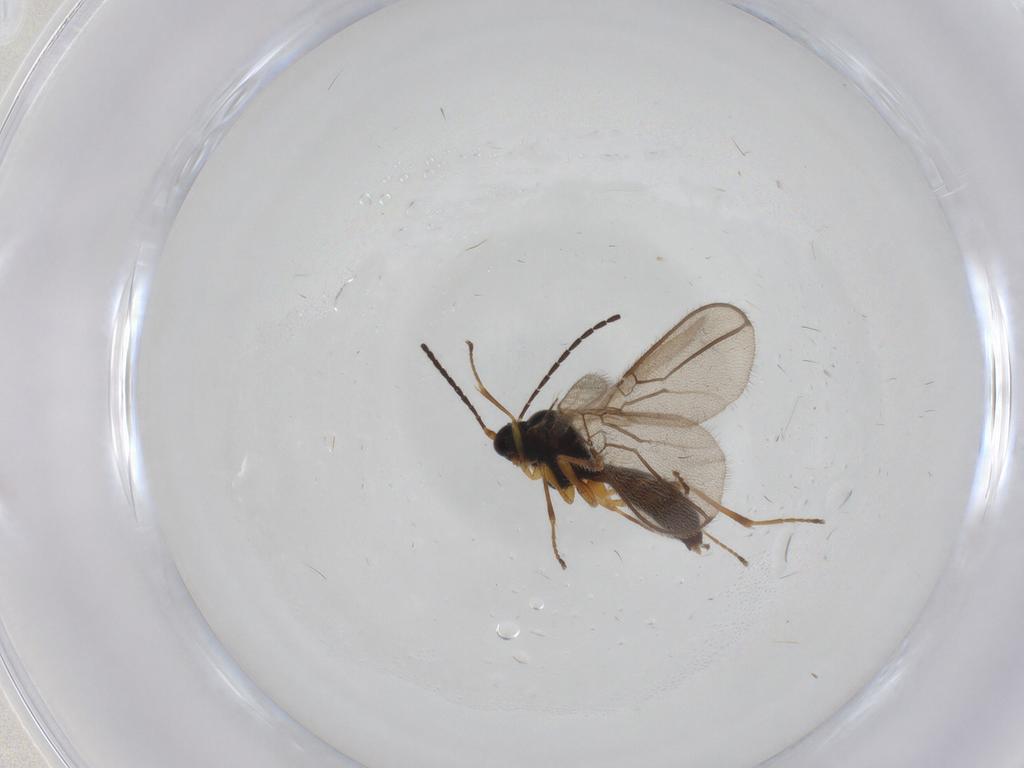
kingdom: Animalia
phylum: Arthropoda
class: Insecta
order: Hymenoptera
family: Braconidae
